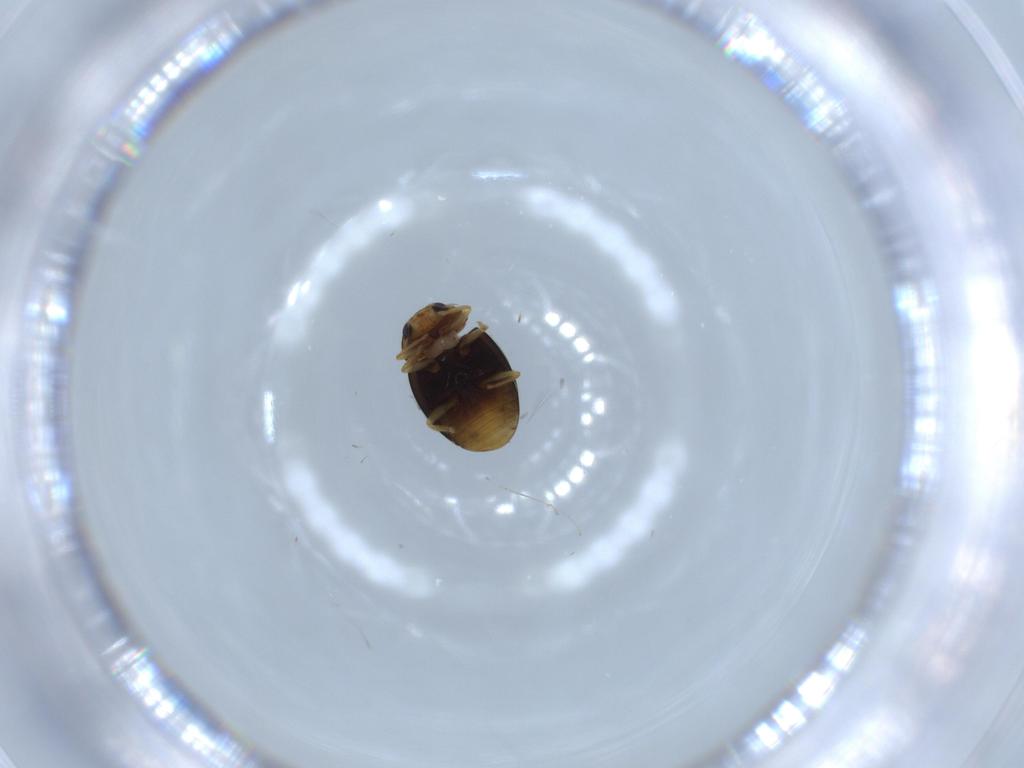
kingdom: Animalia
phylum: Arthropoda
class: Insecta
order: Coleoptera
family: Coccinellidae
